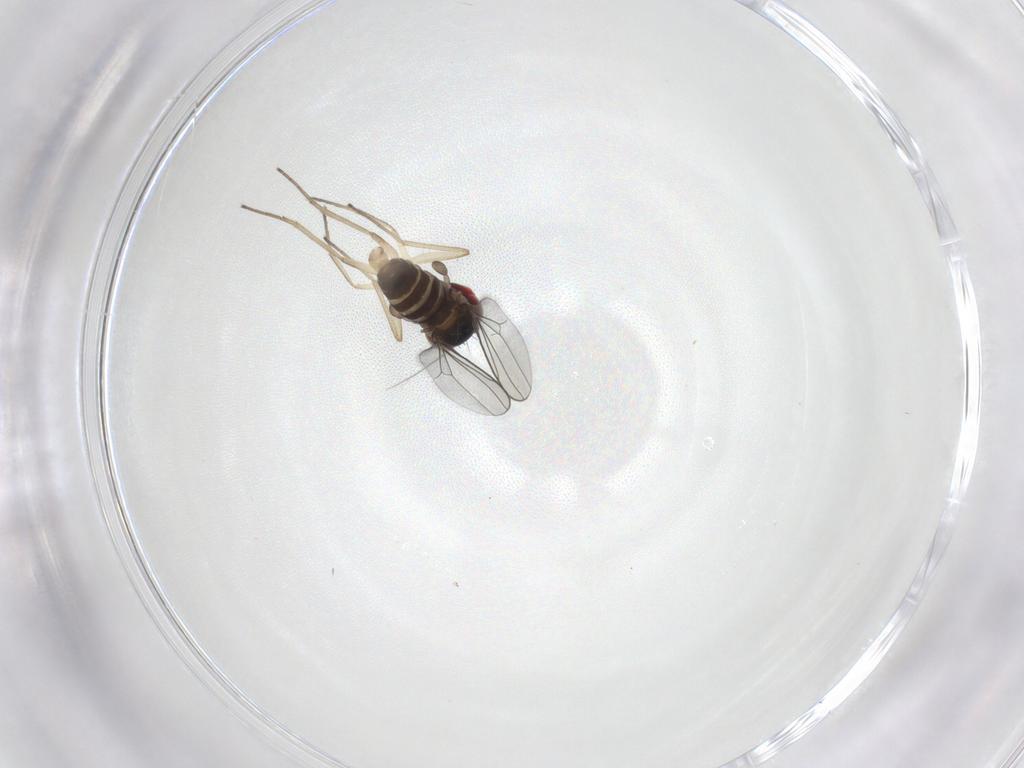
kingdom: Animalia
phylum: Arthropoda
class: Insecta
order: Diptera
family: Dolichopodidae
